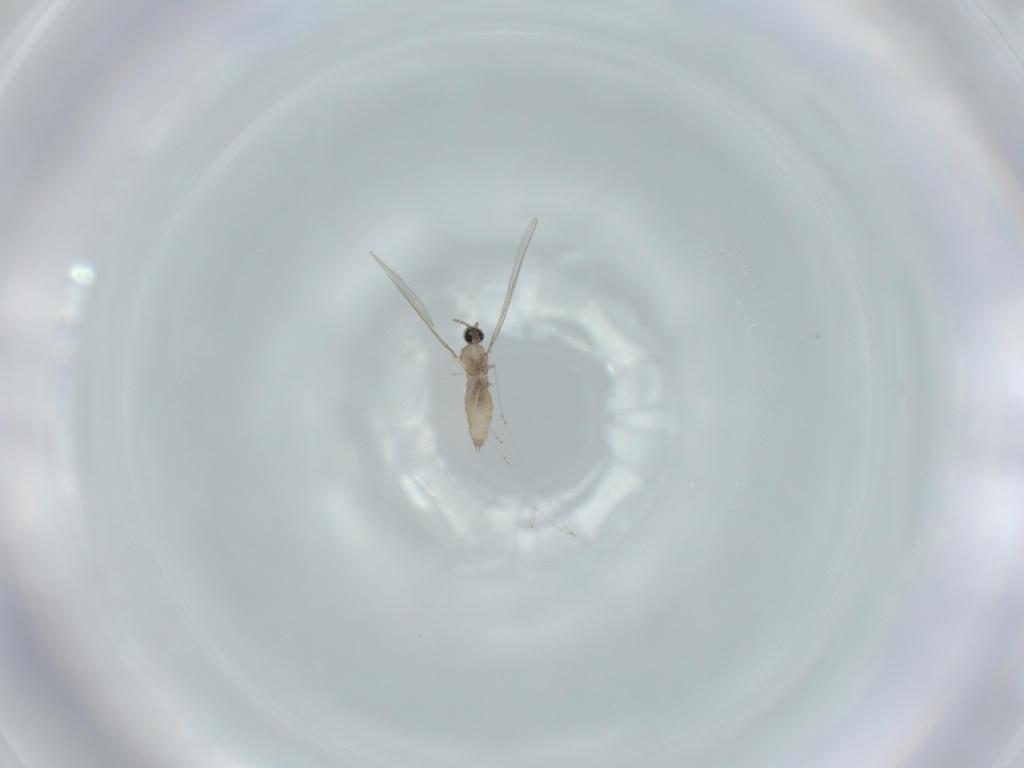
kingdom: Animalia
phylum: Arthropoda
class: Insecta
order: Diptera
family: Cecidomyiidae
